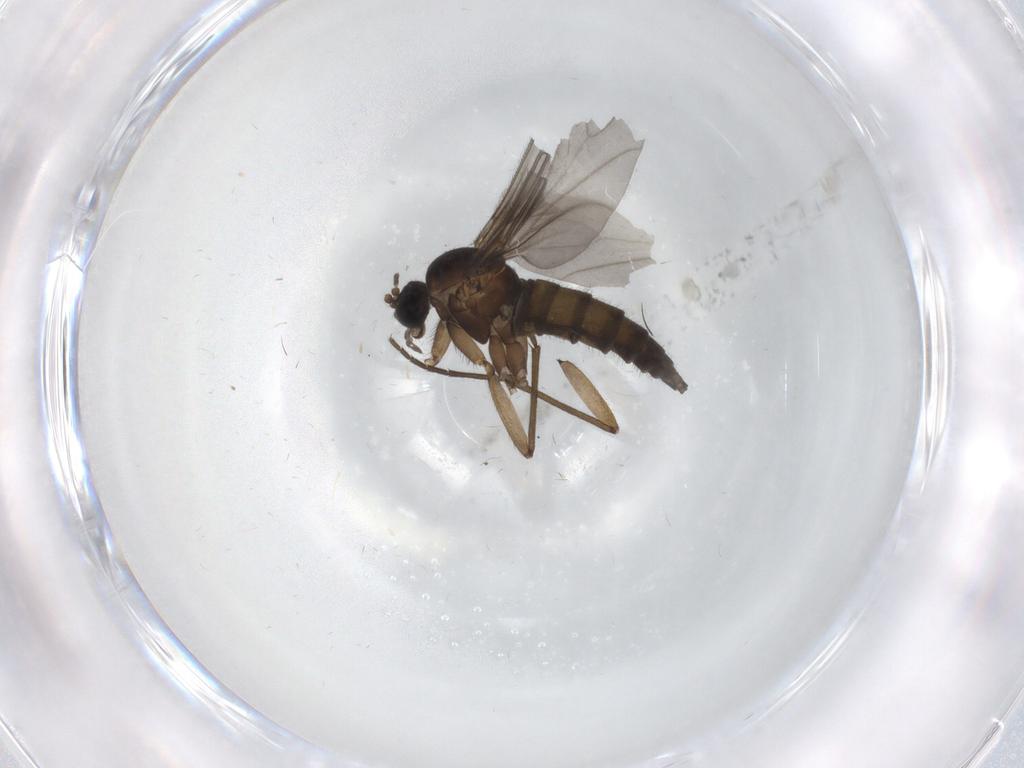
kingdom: Animalia
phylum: Arthropoda
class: Insecta
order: Diptera
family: Sciaridae
